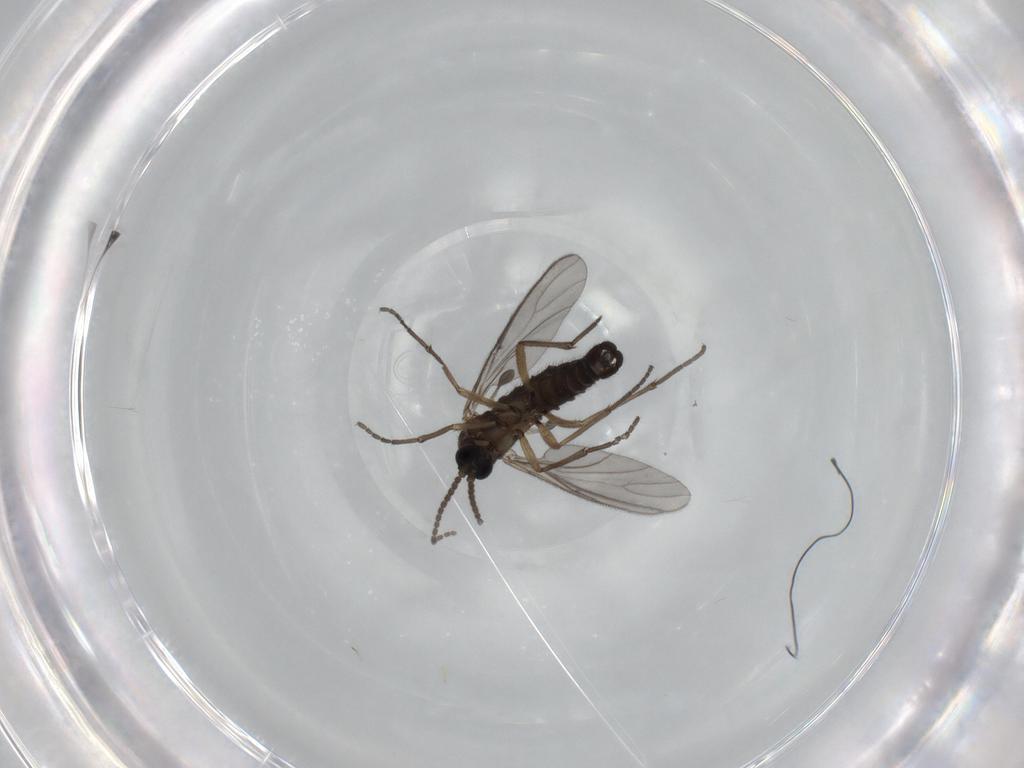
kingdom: Animalia
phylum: Arthropoda
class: Insecta
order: Diptera
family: Sciaridae
